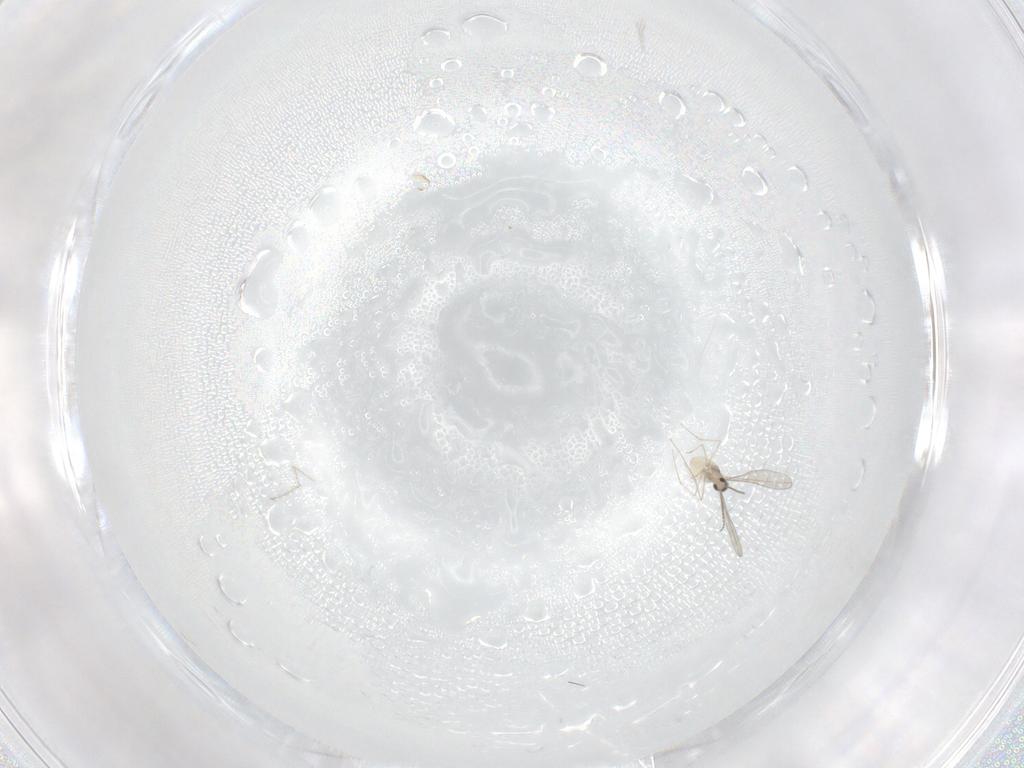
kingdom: Animalia
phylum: Arthropoda
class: Insecta
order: Diptera
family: Cecidomyiidae
